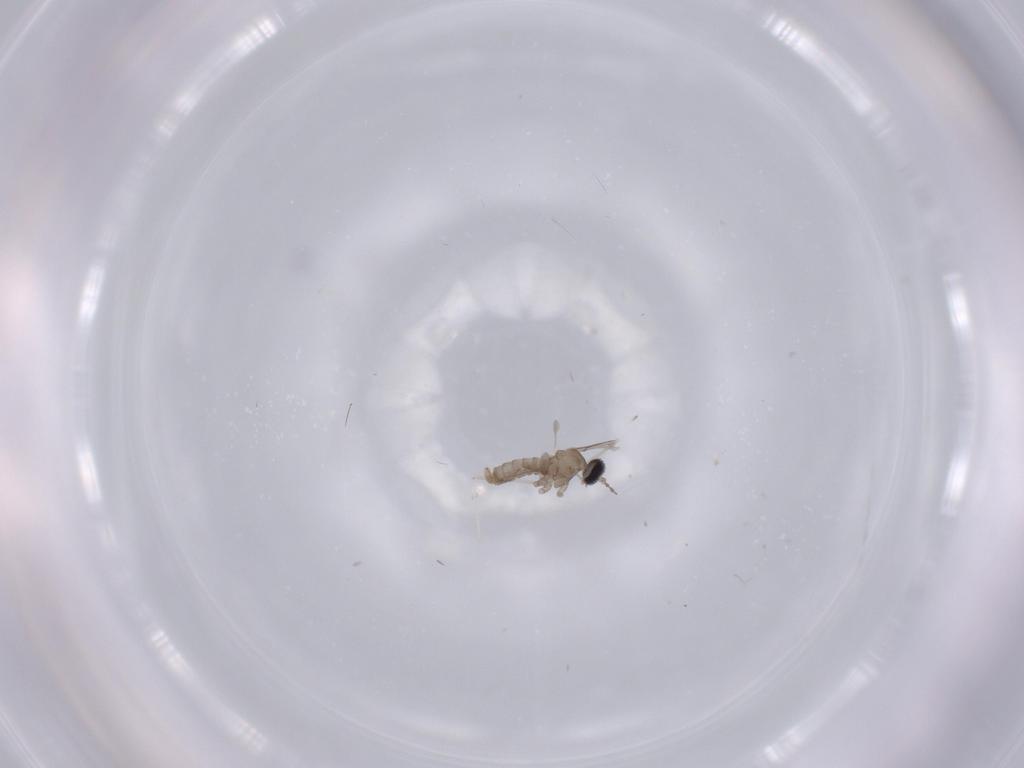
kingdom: Animalia
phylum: Arthropoda
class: Insecta
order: Diptera
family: Ceratopogonidae
